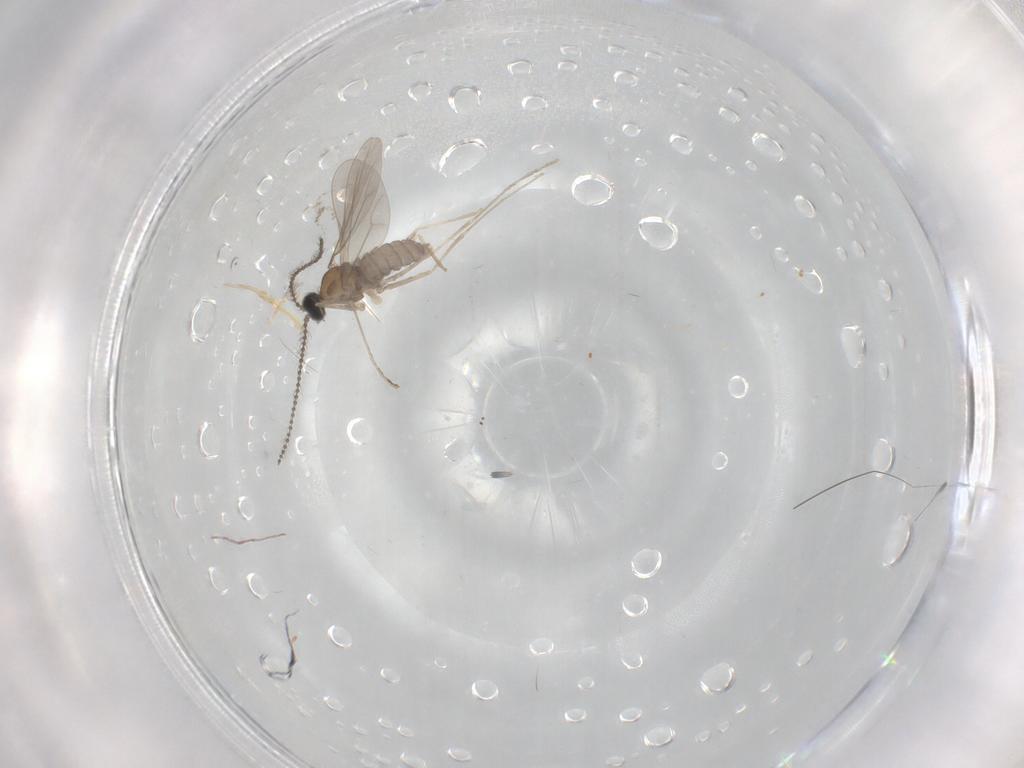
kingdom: Animalia
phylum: Arthropoda
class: Insecta
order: Diptera
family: Cecidomyiidae
